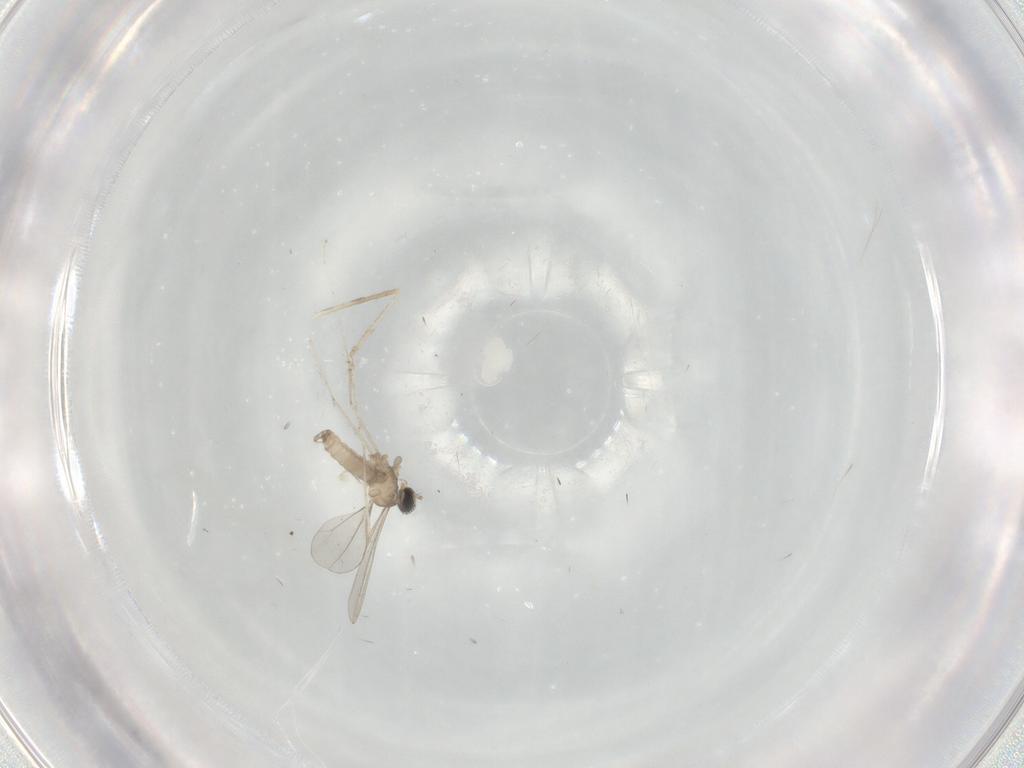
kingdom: Animalia
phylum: Arthropoda
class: Insecta
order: Diptera
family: Cecidomyiidae
